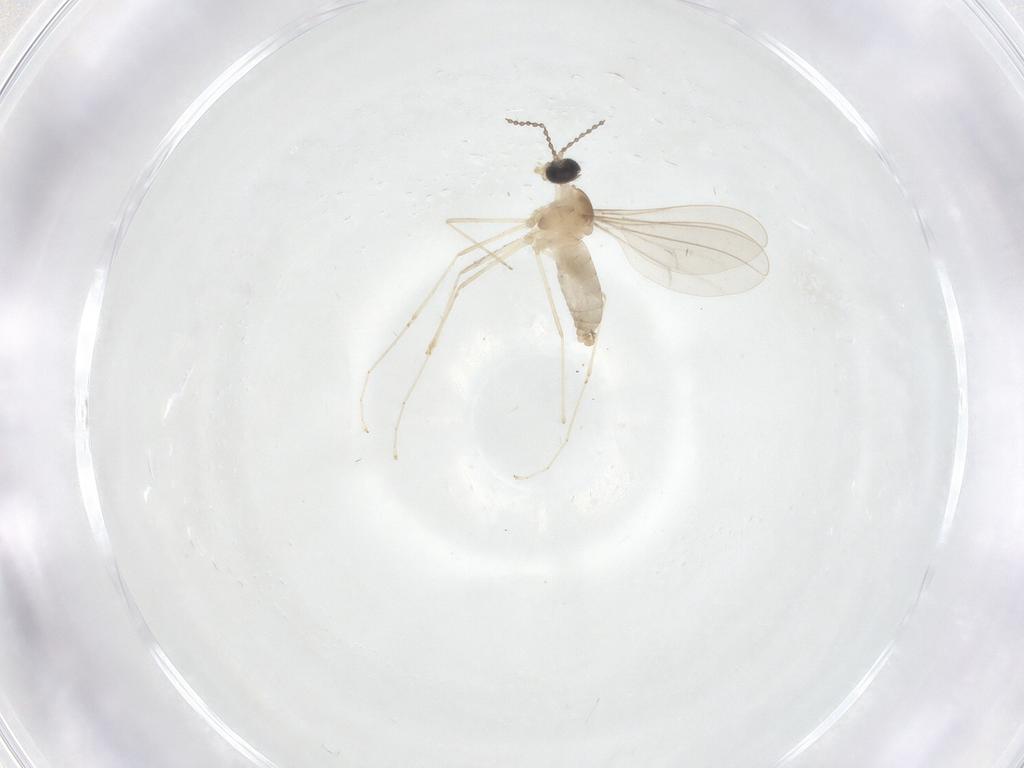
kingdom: Animalia
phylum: Arthropoda
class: Insecta
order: Diptera
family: Cecidomyiidae
